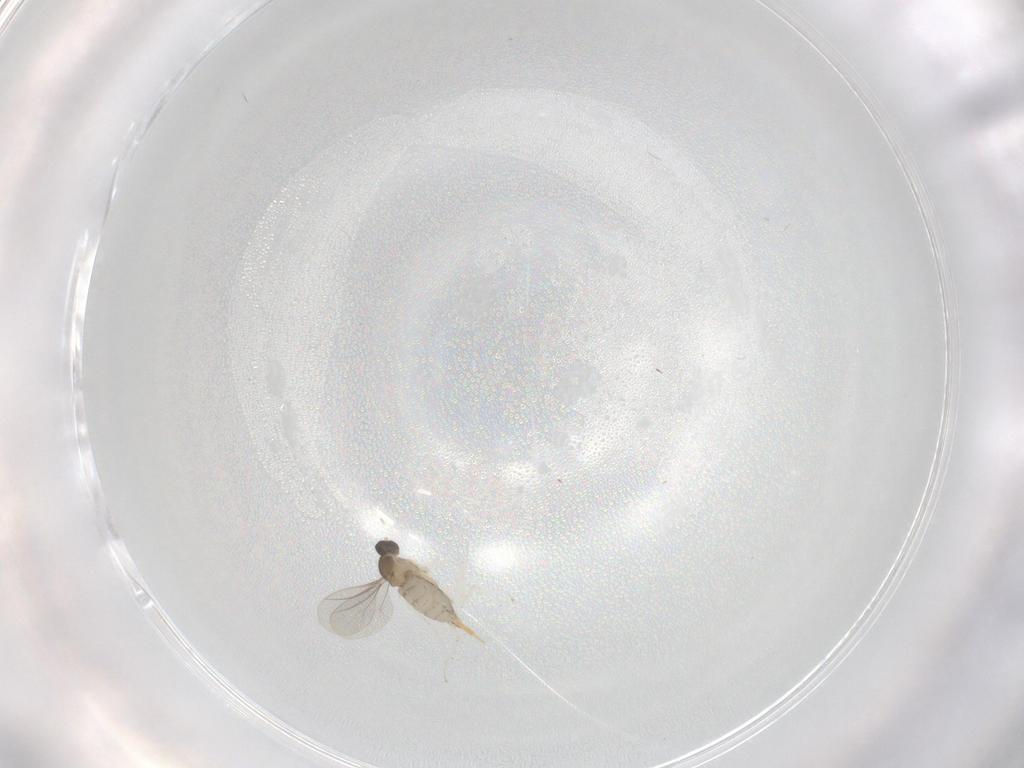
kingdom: Animalia
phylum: Arthropoda
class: Insecta
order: Diptera
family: Cecidomyiidae
